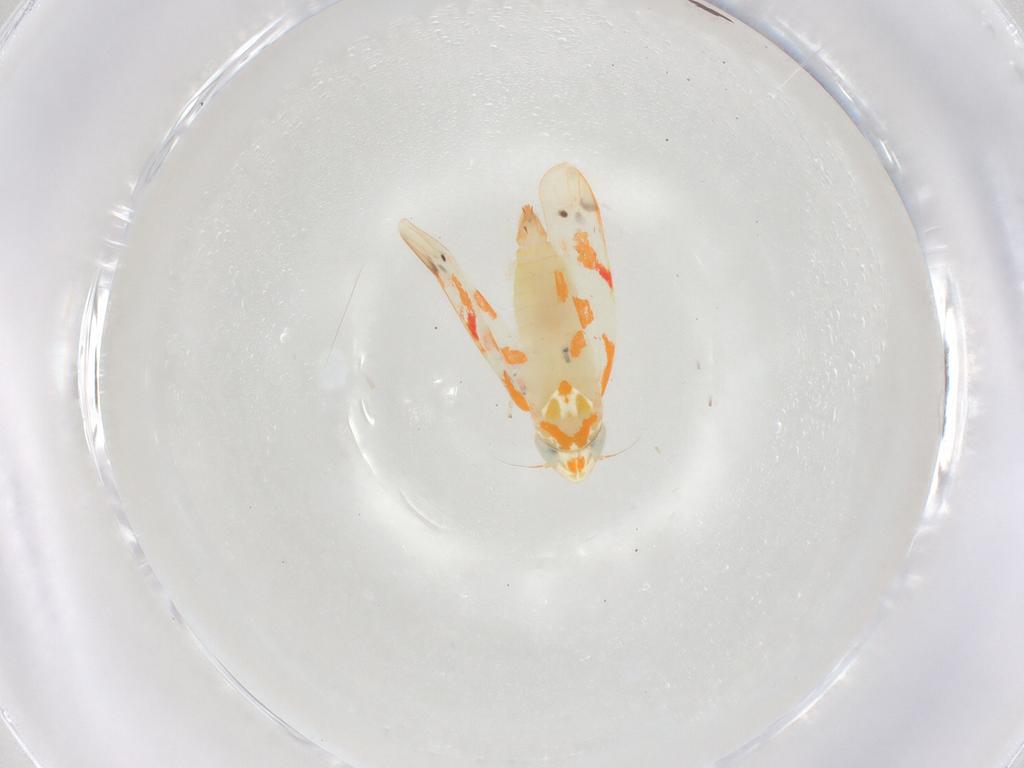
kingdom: Animalia
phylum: Arthropoda
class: Insecta
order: Hemiptera
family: Cicadellidae
